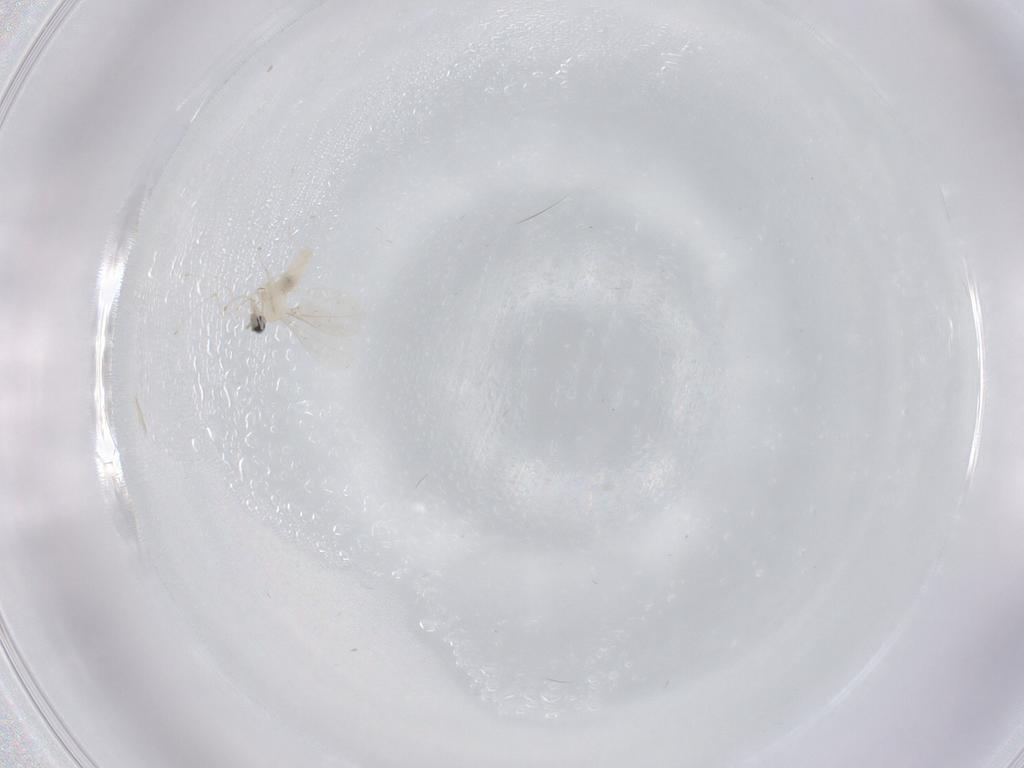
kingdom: Animalia
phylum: Arthropoda
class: Insecta
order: Diptera
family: Cecidomyiidae
